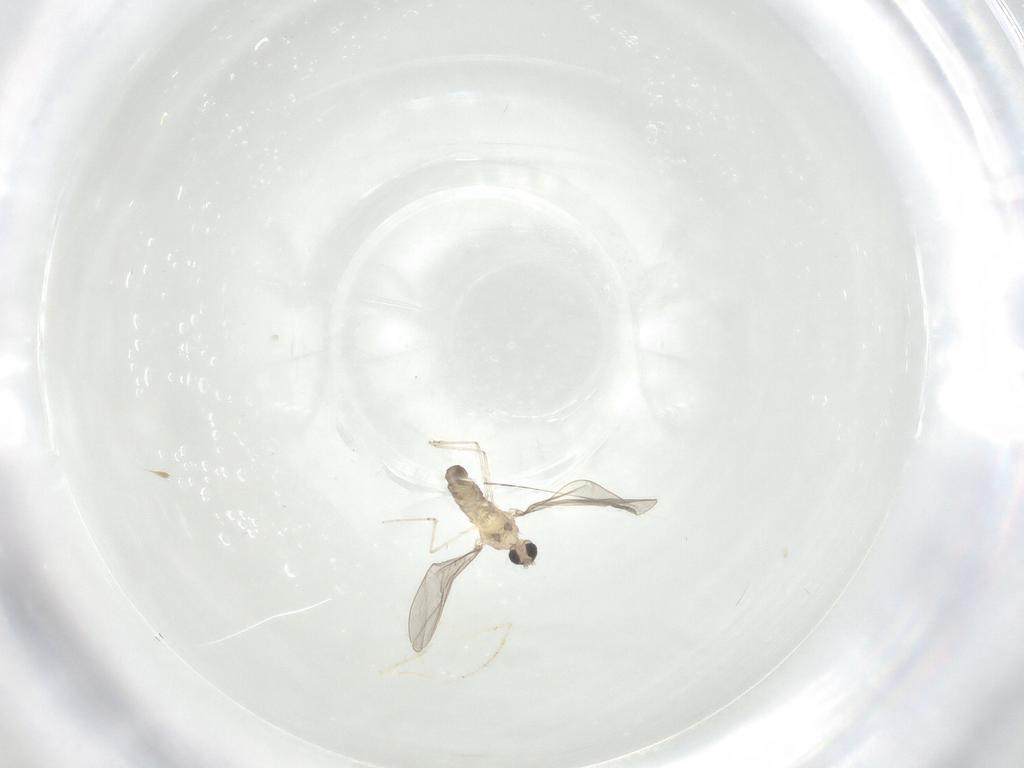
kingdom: Animalia
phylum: Arthropoda
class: Insecta
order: Diptera
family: Cecidomyiidae
